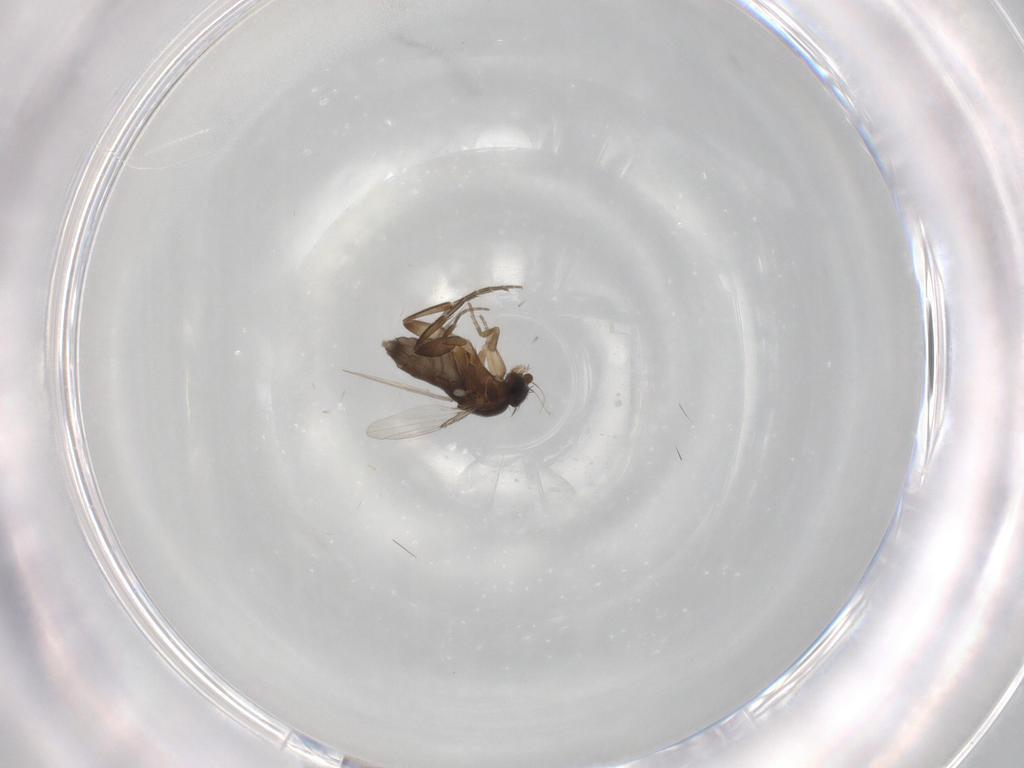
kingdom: Animalia
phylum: Arthropoda
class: Insecta
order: Diptera
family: Phoridae
